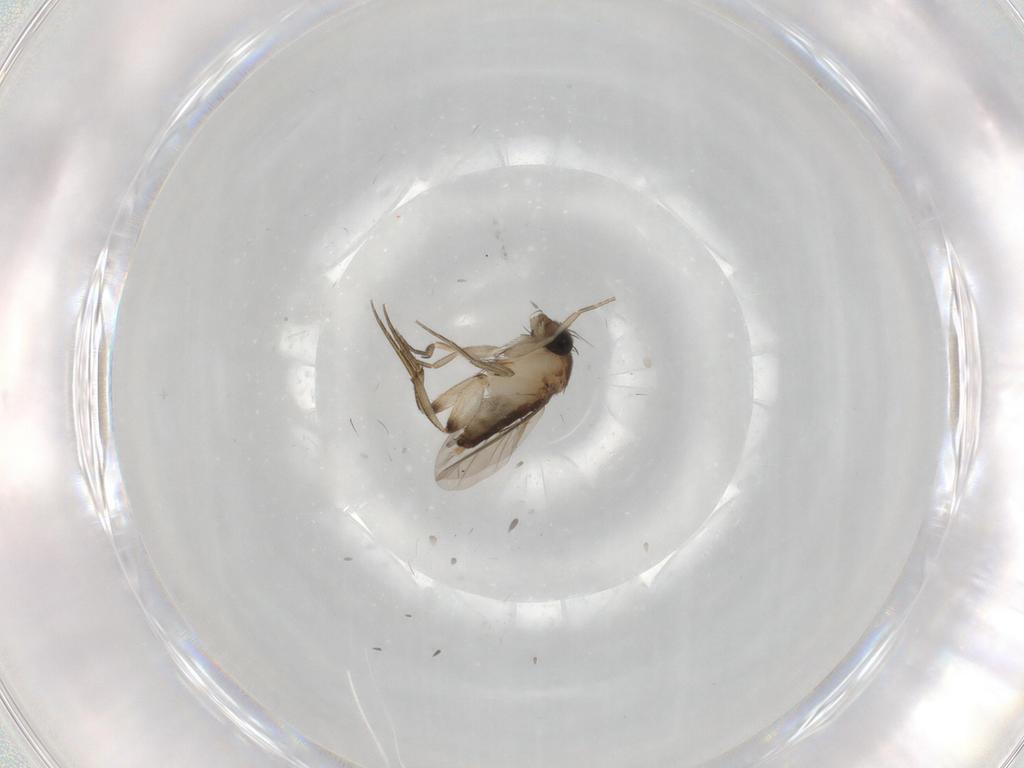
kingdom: Animalia
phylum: Arthropoda
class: Insecta
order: Diptera
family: Phoridae
